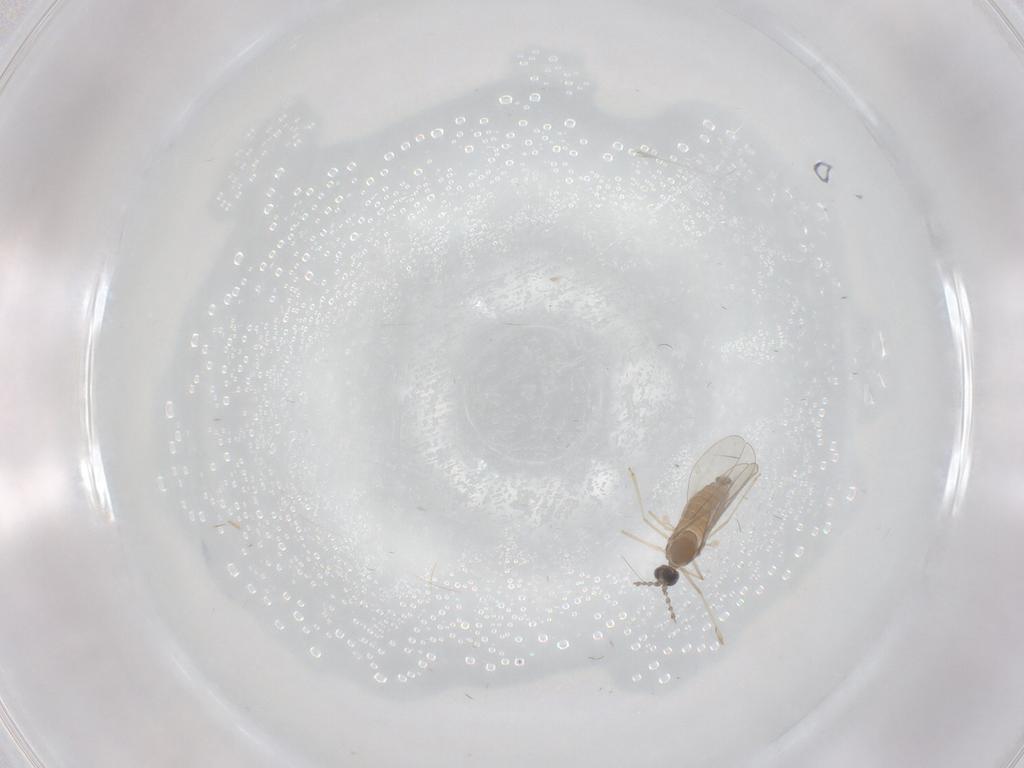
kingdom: Animalia
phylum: Arthropoda
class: Insecta
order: Diptera
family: Cecidomyiidae
